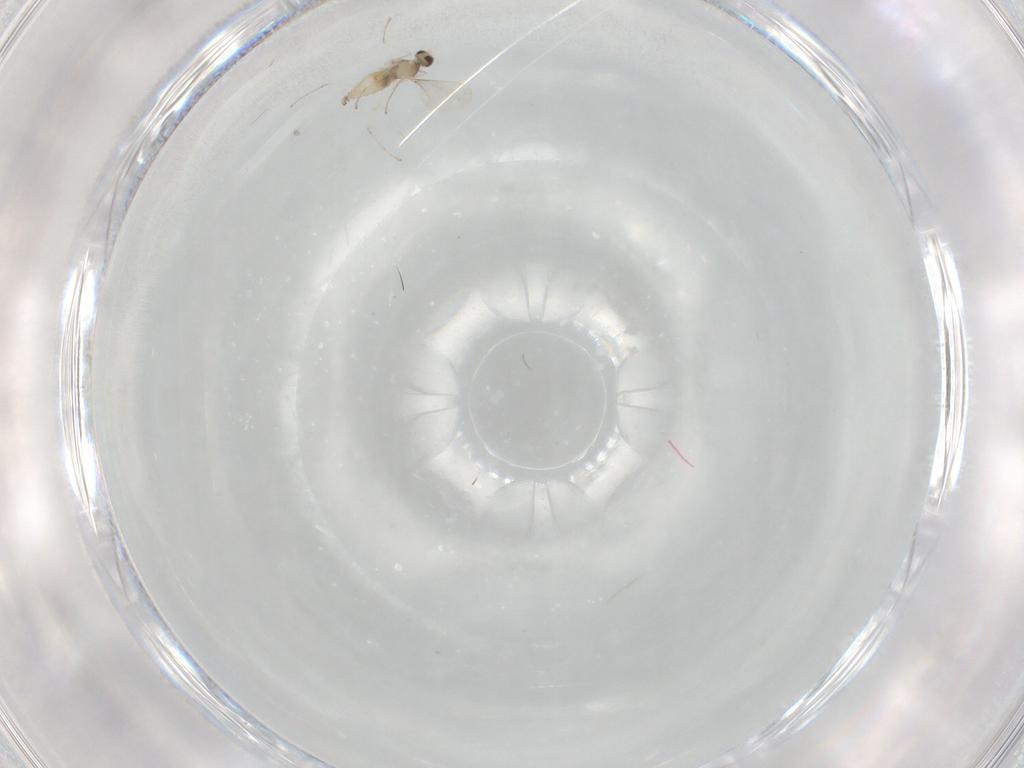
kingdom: Animalia
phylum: Arthropoda
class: Insecta
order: Diptera
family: Cecidomyiidae
